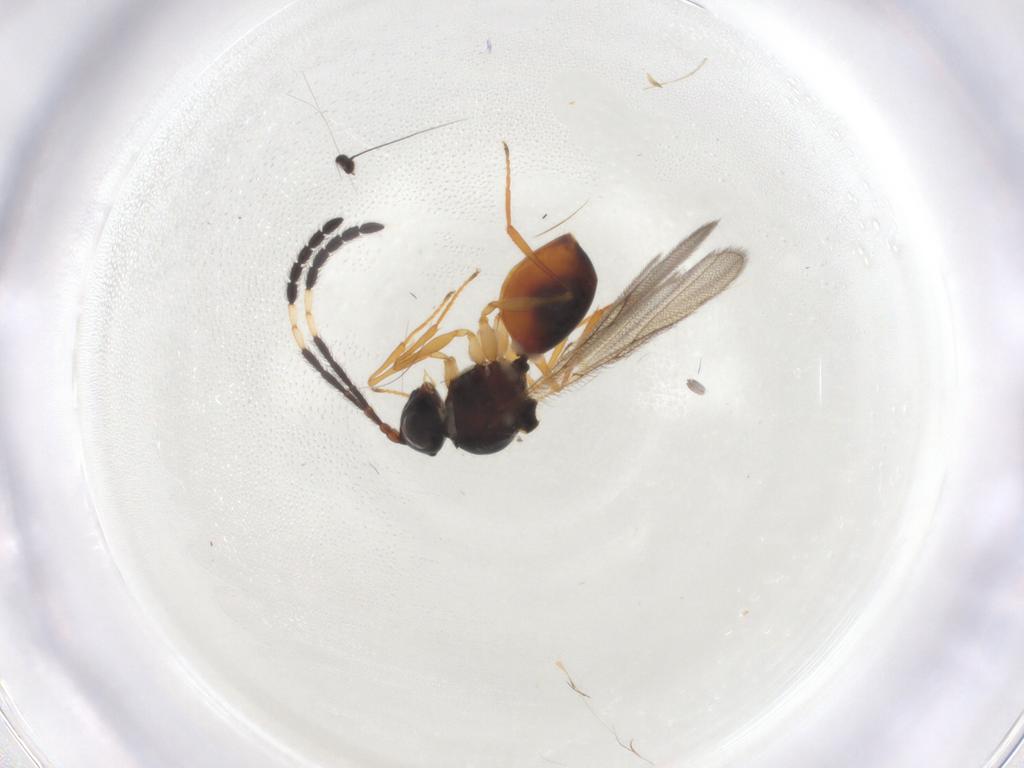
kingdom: Animalia
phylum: Arthropoda
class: Insecta
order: Hymenoptera
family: Figitidae
